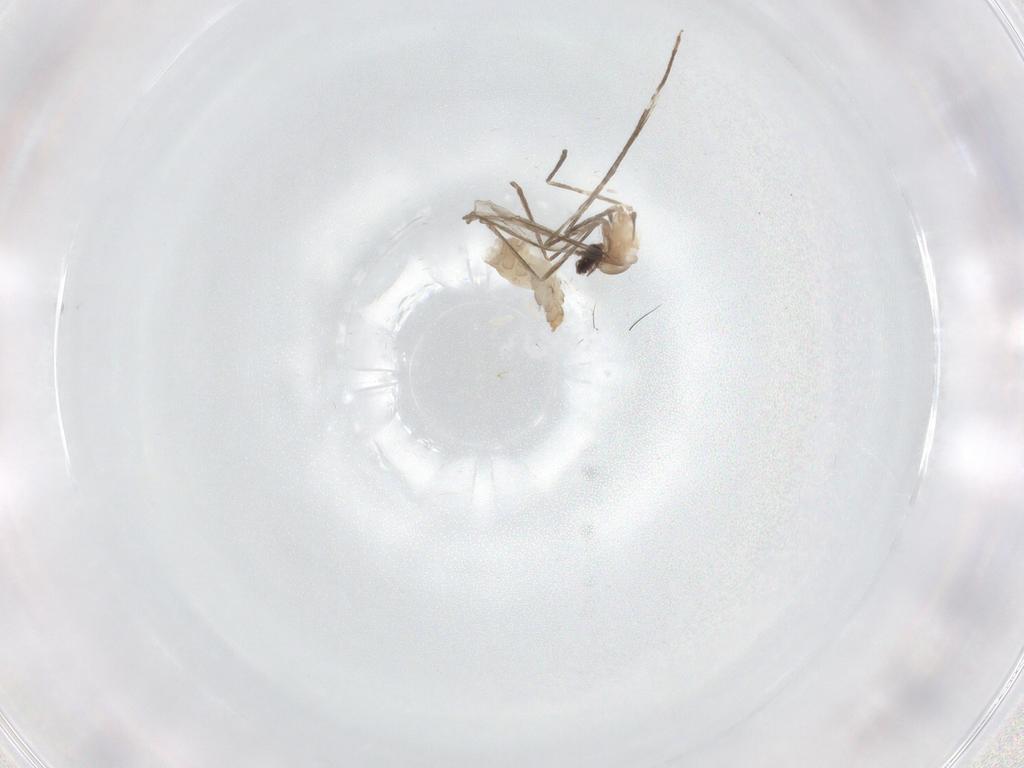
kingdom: Animalia
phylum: Arthropoda
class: Insecta
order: Diptera
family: Cecidomyiidae
